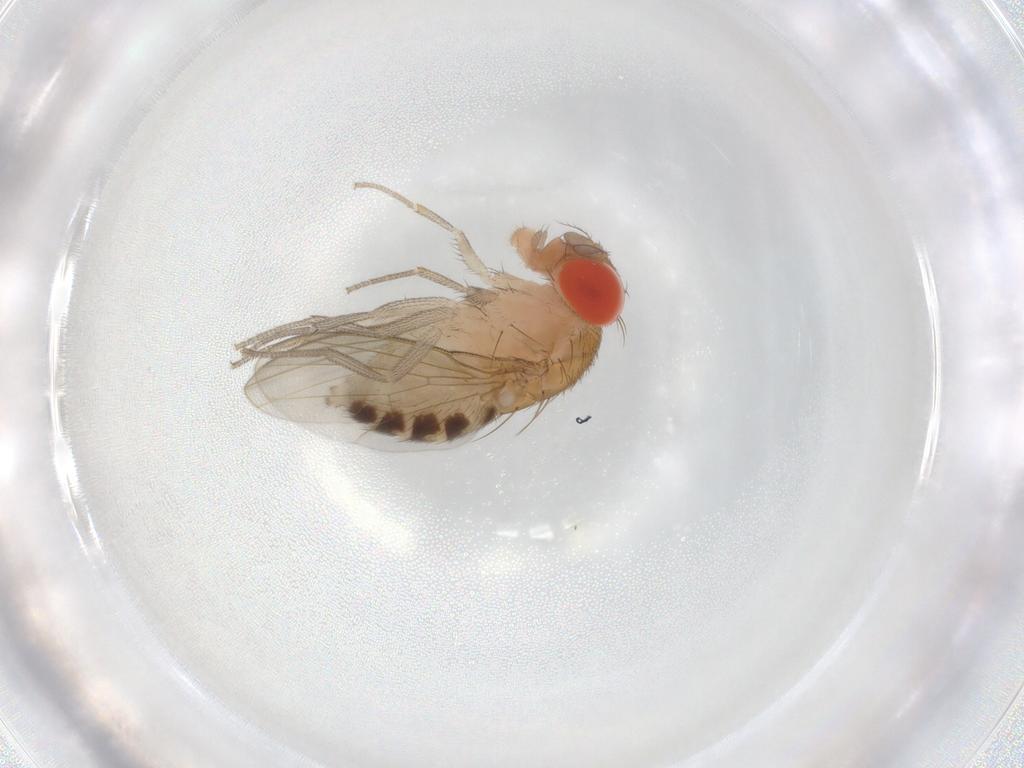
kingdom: Animalia
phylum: Arthropoda
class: Insecta
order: Diptera
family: Drosophilidae
